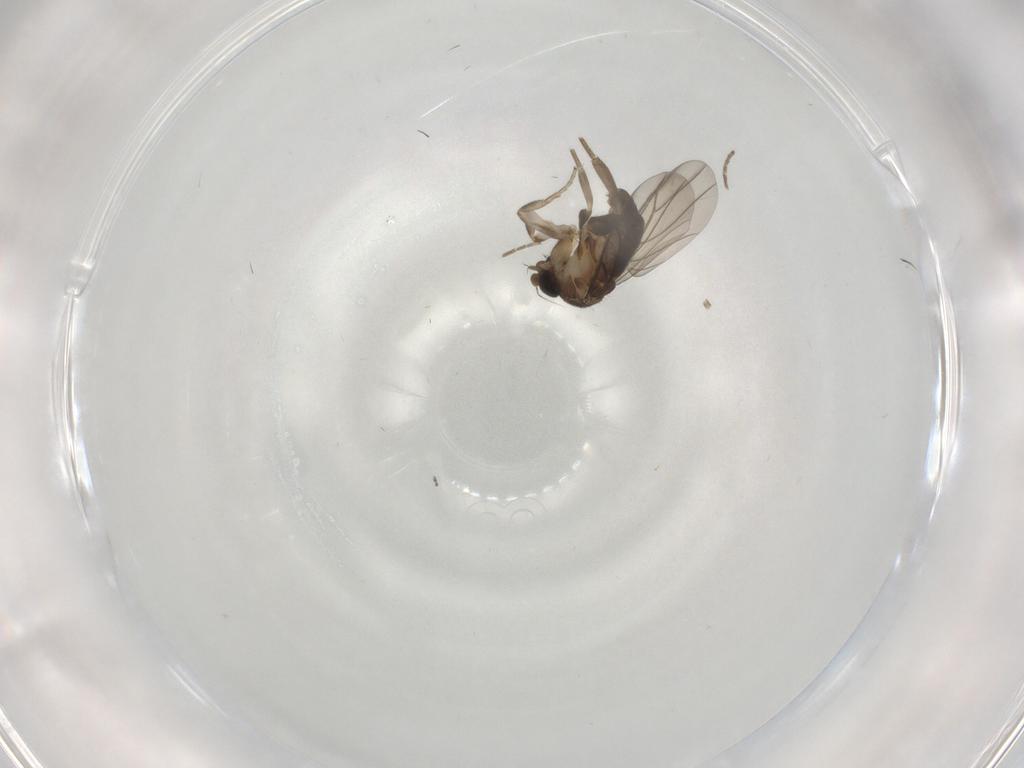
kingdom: Animalia
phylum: Arthropoda
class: Insecta
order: Diptera
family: Phoridae
